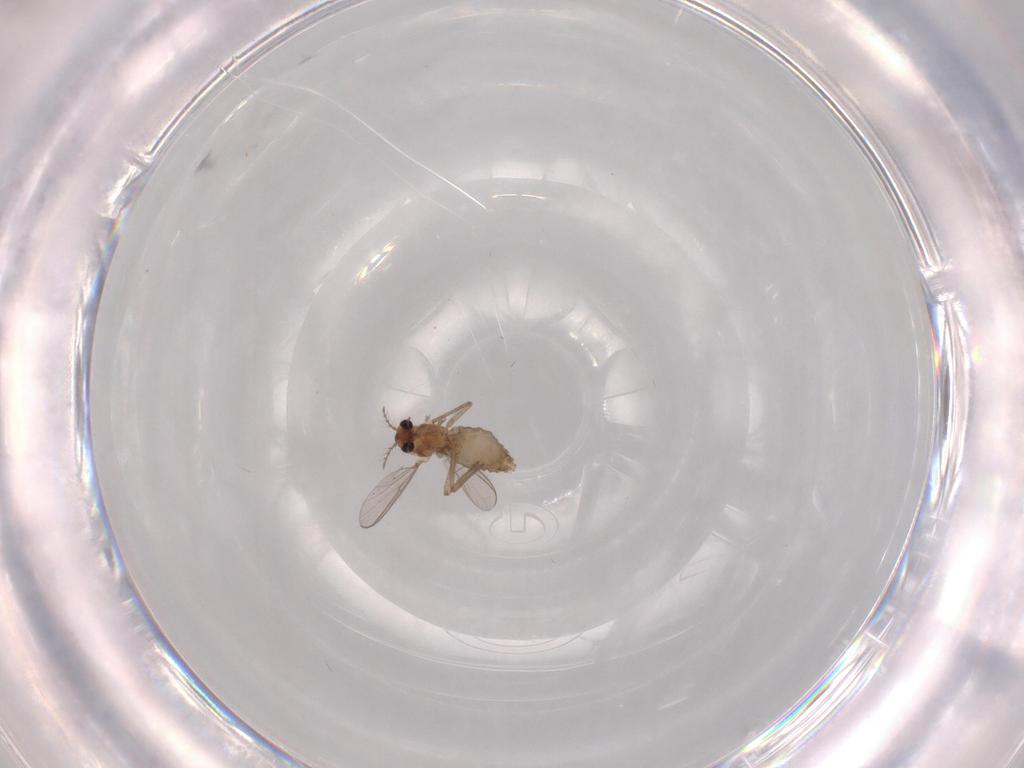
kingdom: Animalia
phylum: Arthropoda
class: Insecta
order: Diptera
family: Chironomidae
